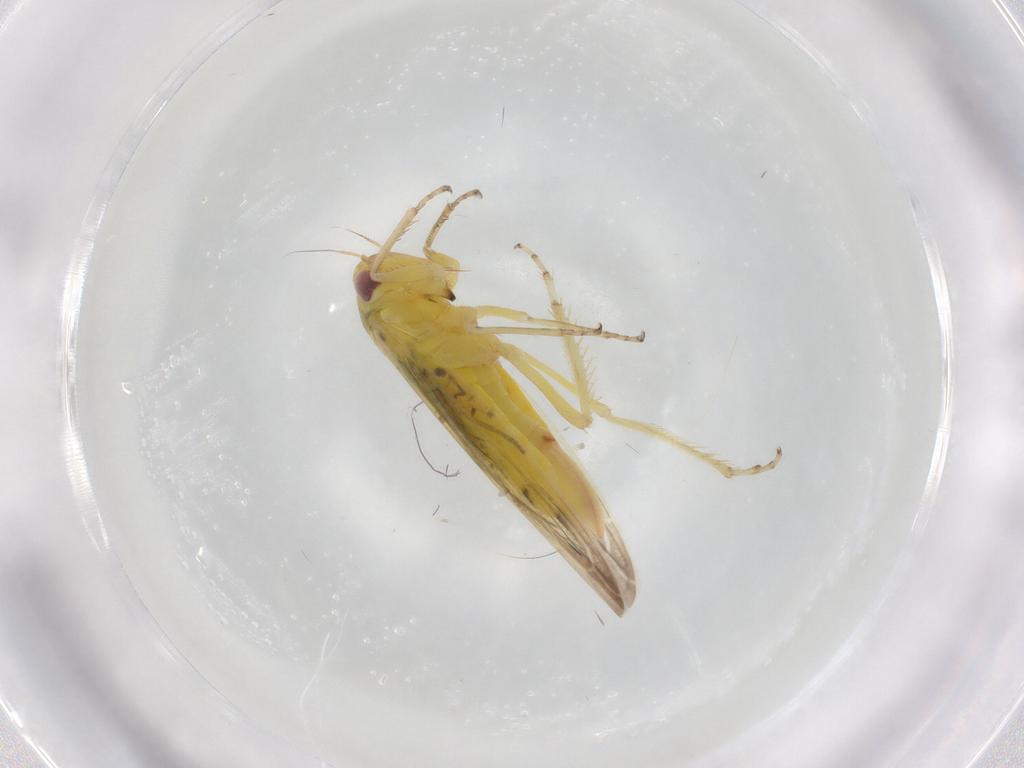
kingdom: Animalia
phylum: Arthropoda
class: Insecta
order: Hemiptera
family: Cicadellidae
